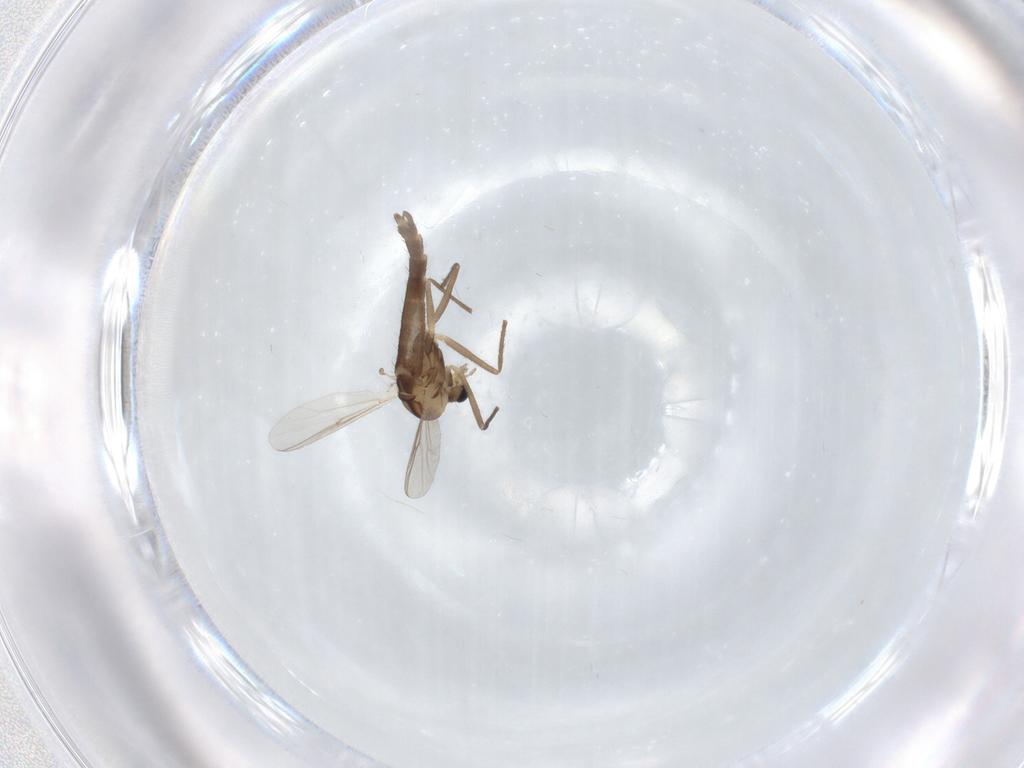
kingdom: Animalia
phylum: Arthropoda
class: Insecta
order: Diptera
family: Chironomidae
